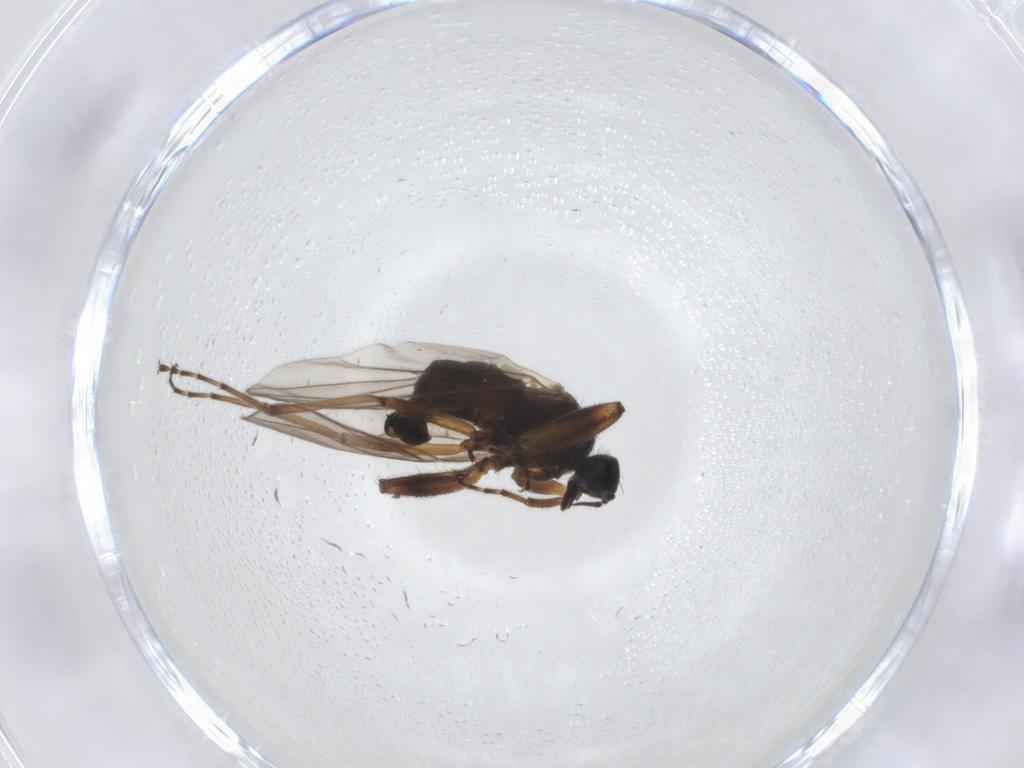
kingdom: Animalia
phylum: Arthropoda
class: Insecta
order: Diptera
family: Hybotidae
